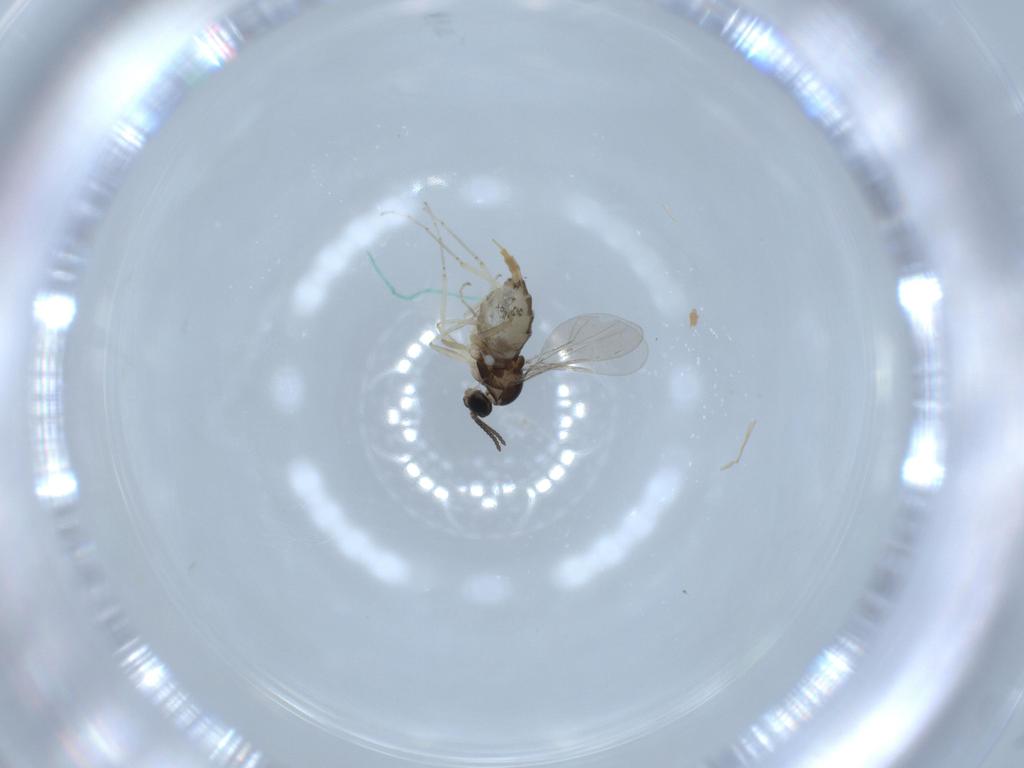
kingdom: Animalia
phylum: Arthropoda
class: Insecta
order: Diptera
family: Cecidomyiidae
